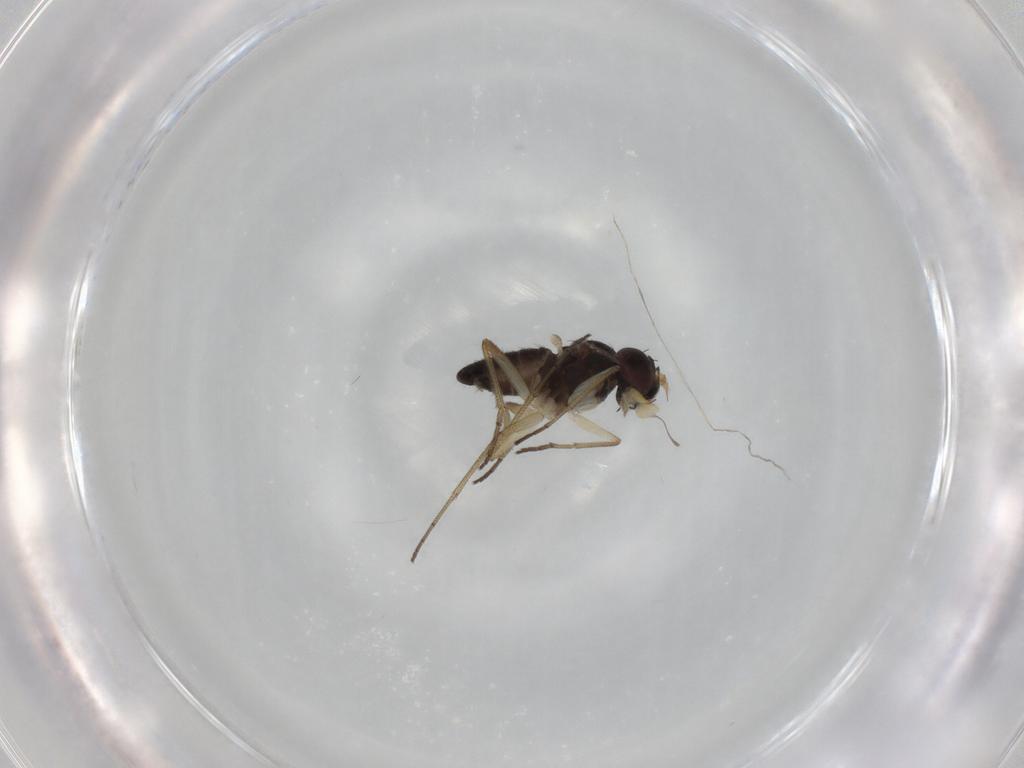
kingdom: Animalia
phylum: Arthropoda
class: Insecta
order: Diptera
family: Dolichopodidae
